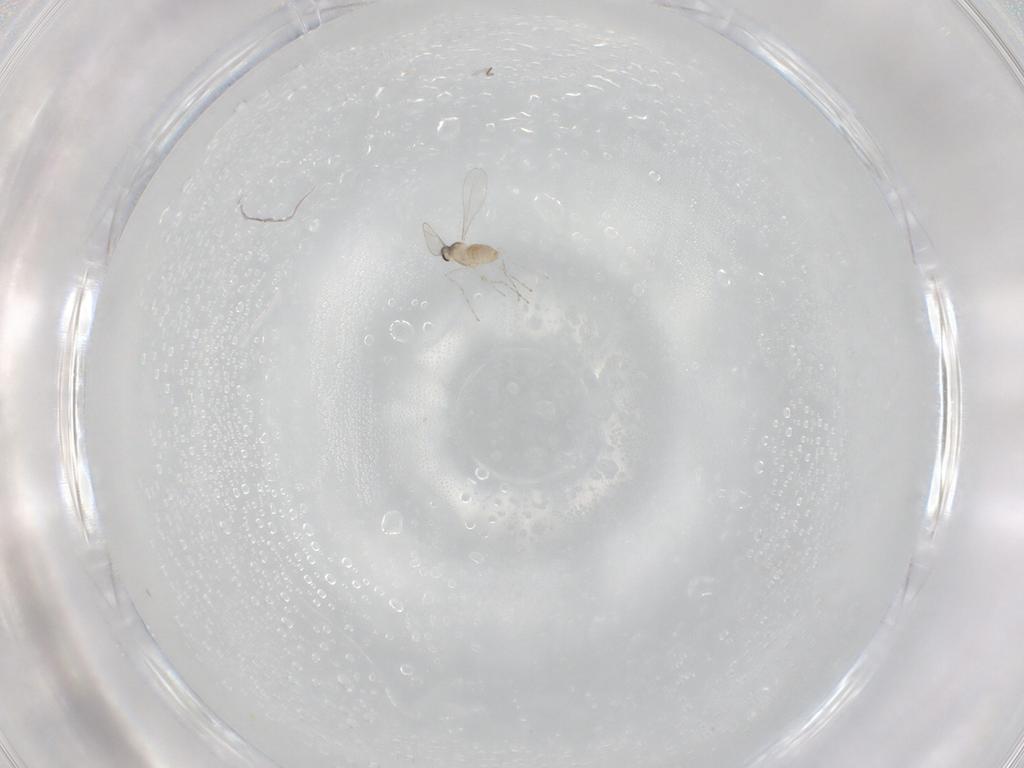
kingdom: Animalia
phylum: Arthropoda
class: Insecta
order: Diptera
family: Cecidomyiidae
